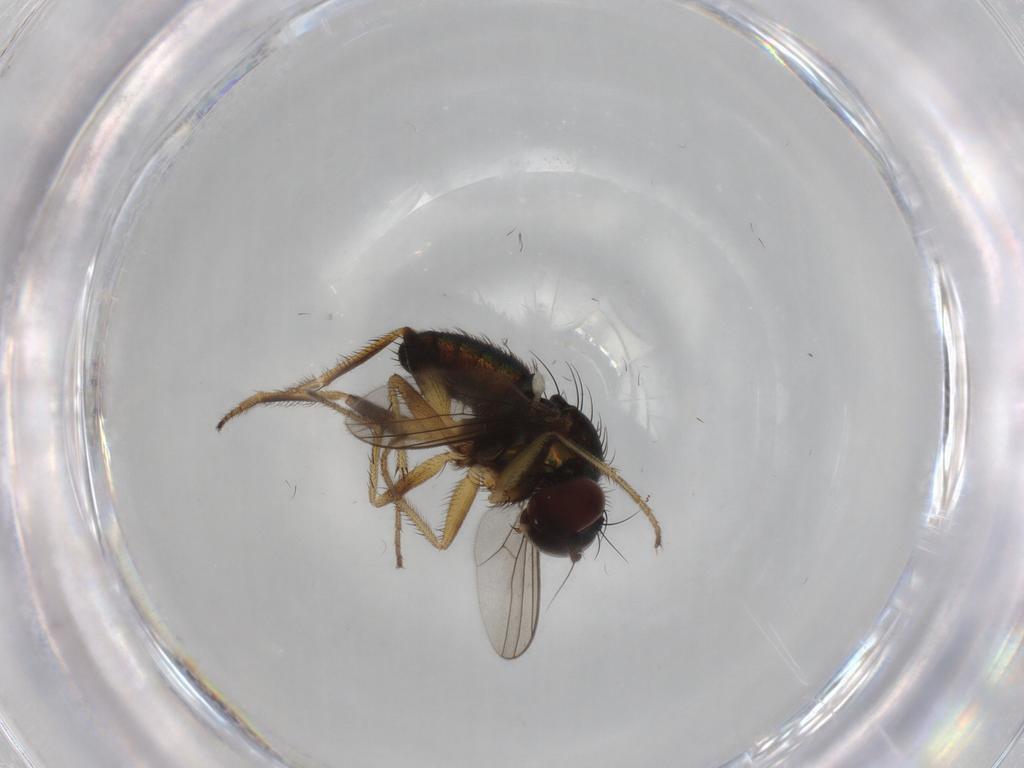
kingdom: Animalia
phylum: Arthropoda
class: Insecta
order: Diptera
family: Dolichopodidae
